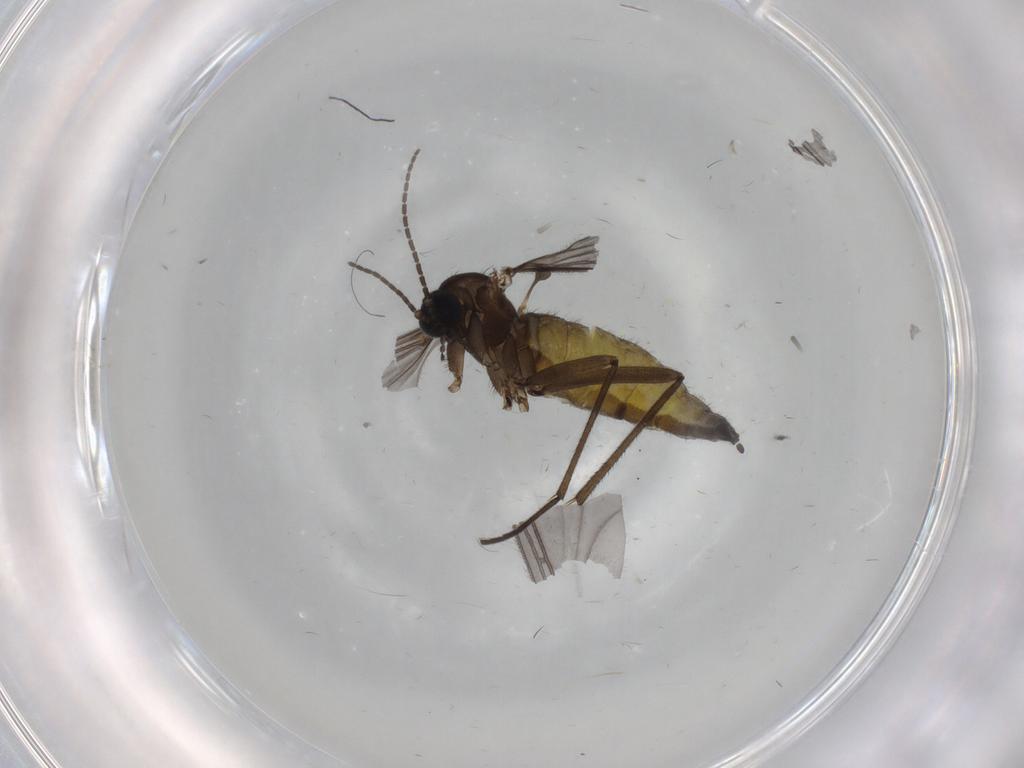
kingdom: Animalia
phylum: Arthropoda
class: Insecta
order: Diptera
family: Sciaridae
